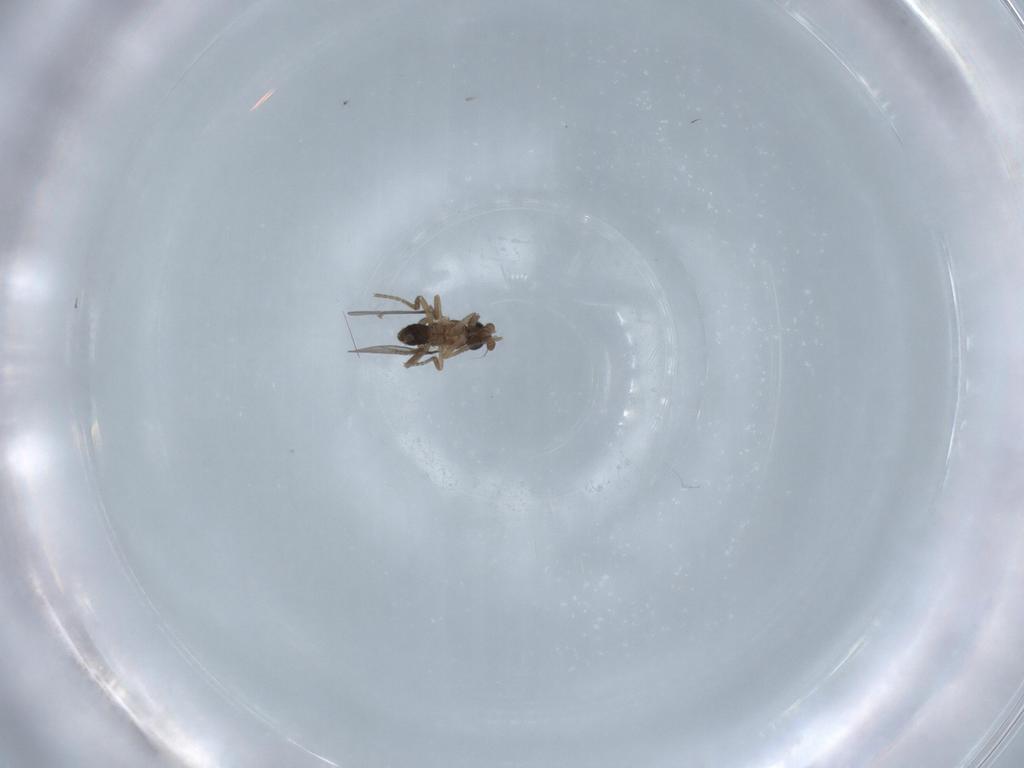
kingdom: Animalia
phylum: Arthropoda
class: Insecta
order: Diptera
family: Phoridae
